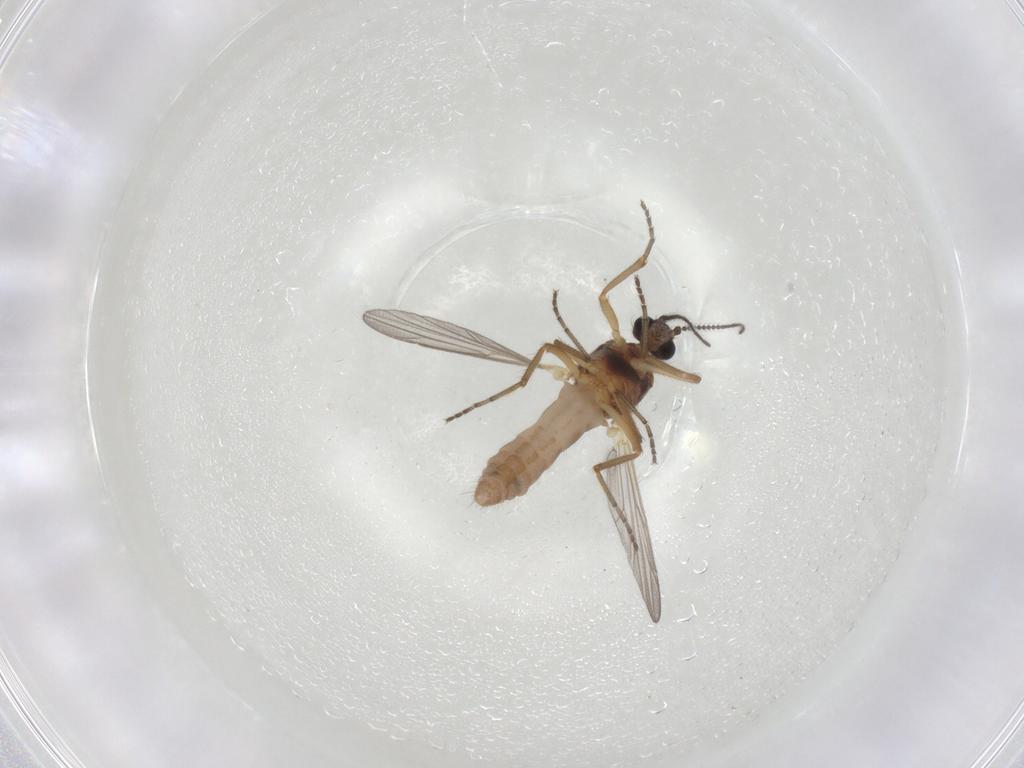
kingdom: Animalia
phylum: Arthropoda
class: Insecta
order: Diptera
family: Ceratopogonidae
